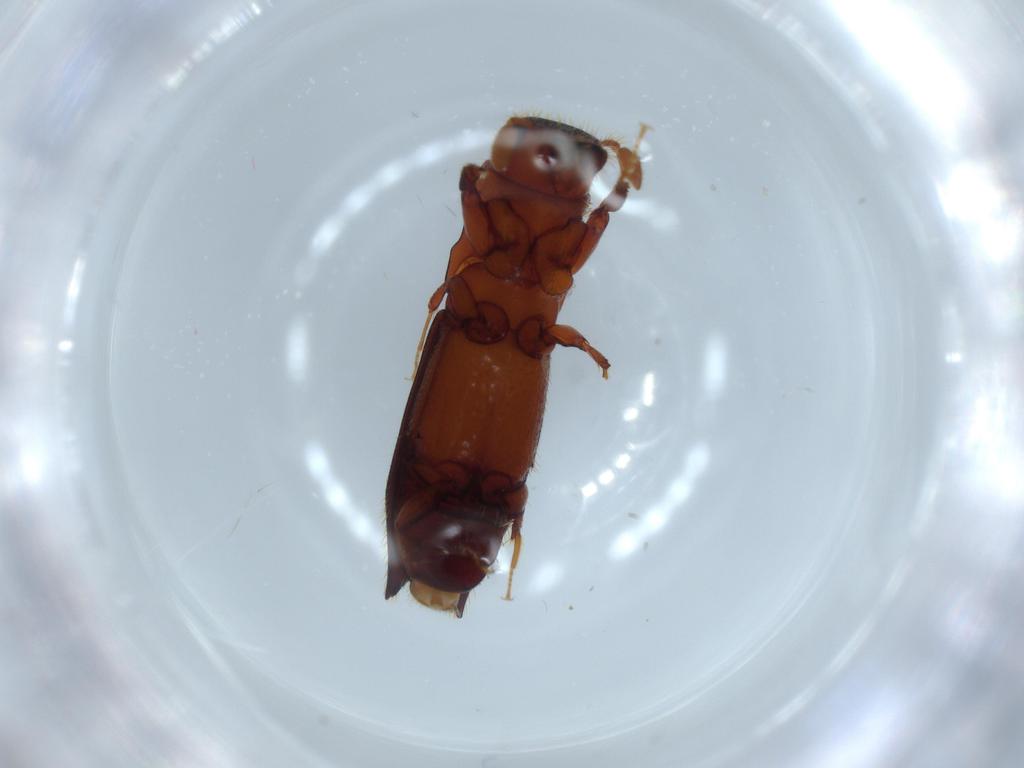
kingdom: Animalia
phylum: Arthropoda
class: Insecta
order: Coleoptera
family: Curculionidae
